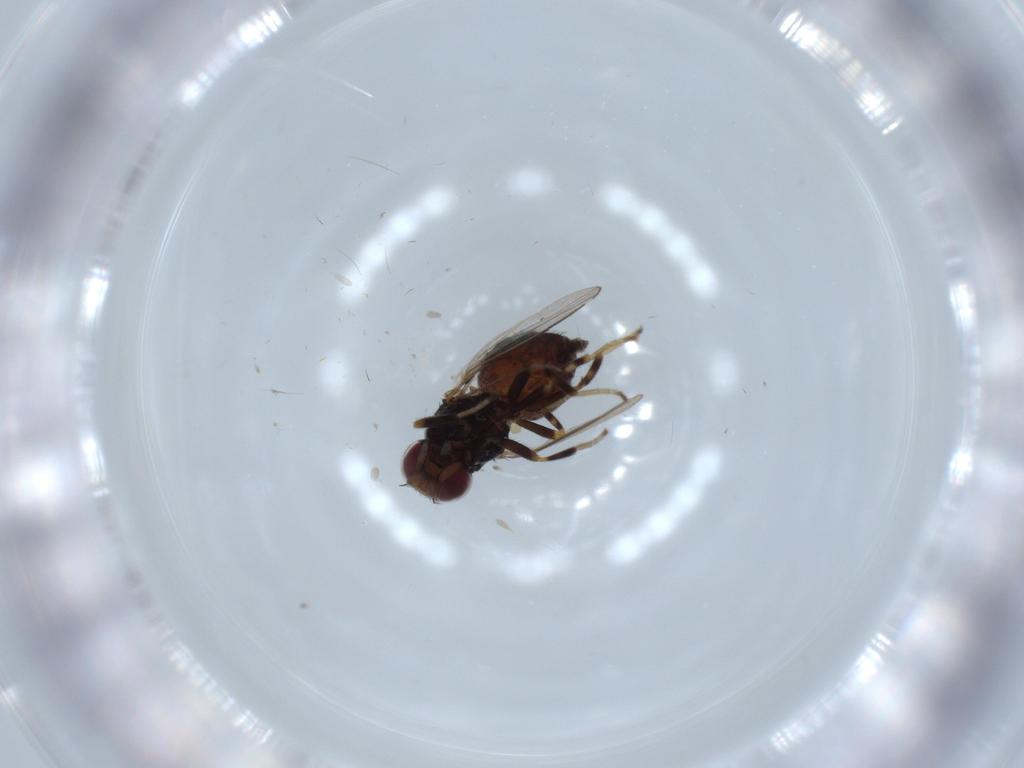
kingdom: Animalia
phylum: Arthropoda
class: Insecta
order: Diptera
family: Chloropidae
